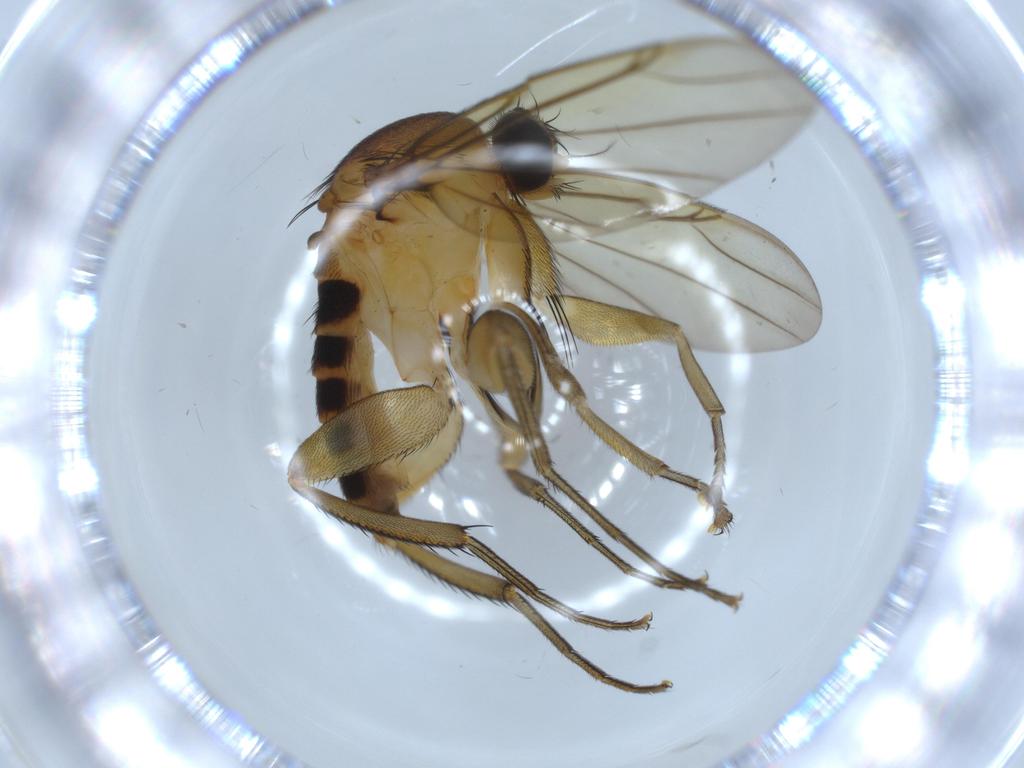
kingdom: Animalia
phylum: Arthropoda
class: Insecta
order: Diptera
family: Phoridae
